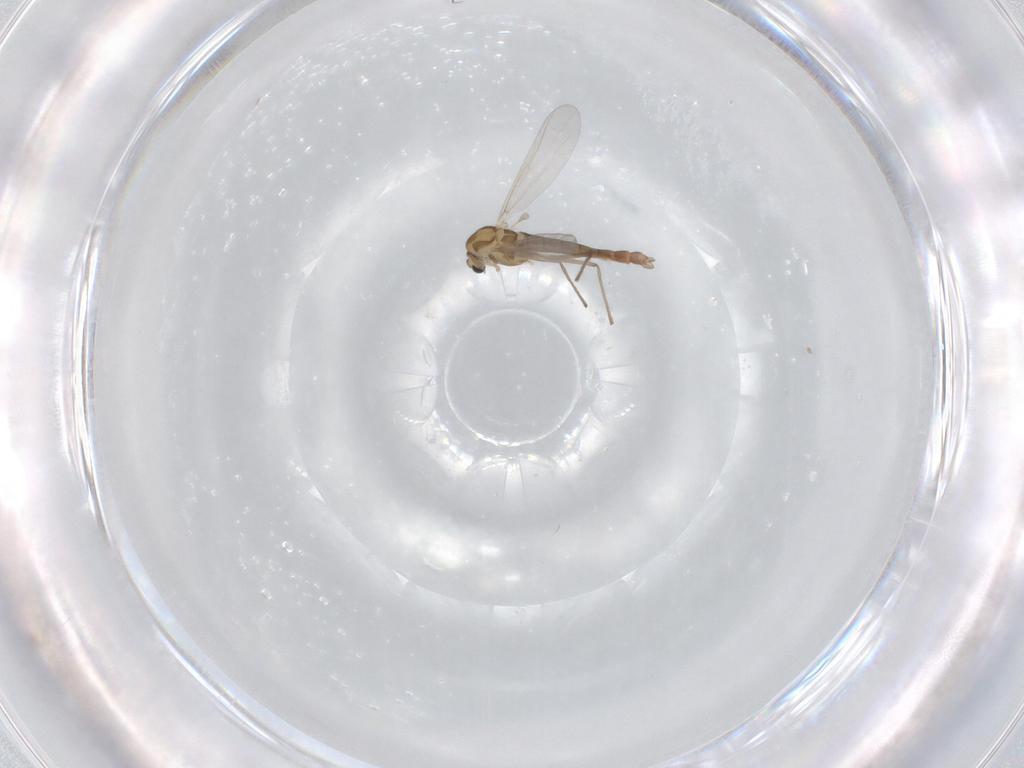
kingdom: Animalia
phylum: Arthropoda
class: Insecta
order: Diptera
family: Chironomidae
